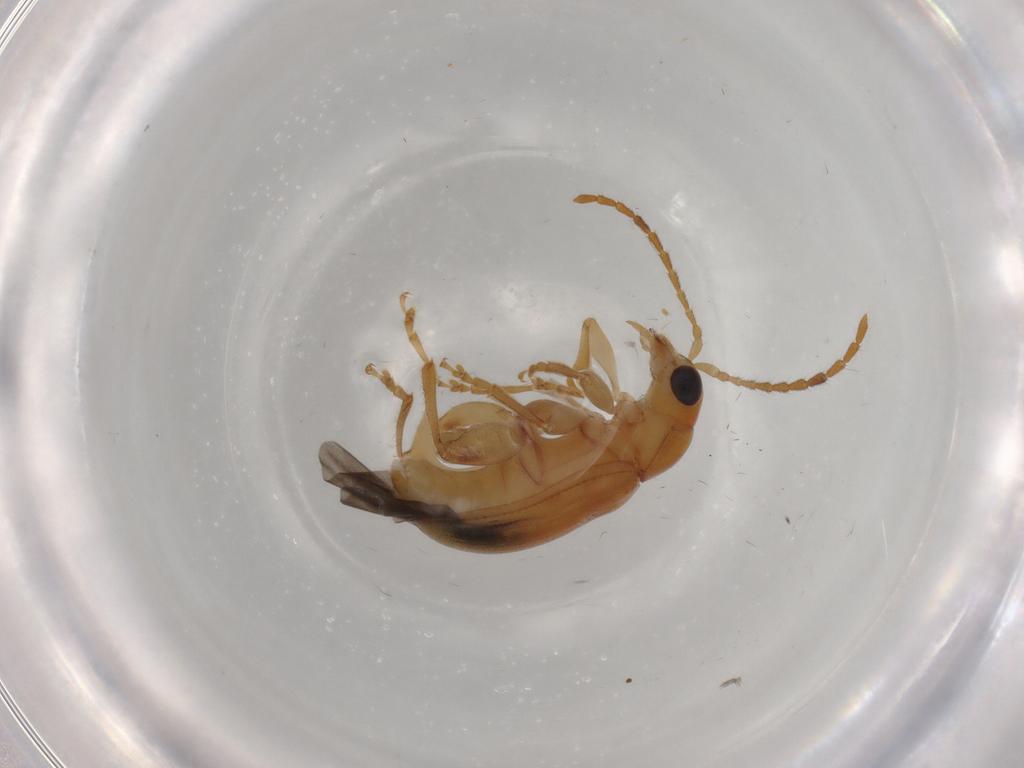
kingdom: Animalia
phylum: Arthropoda
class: Insecta
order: Coleoptera
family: Chrysomelidae
